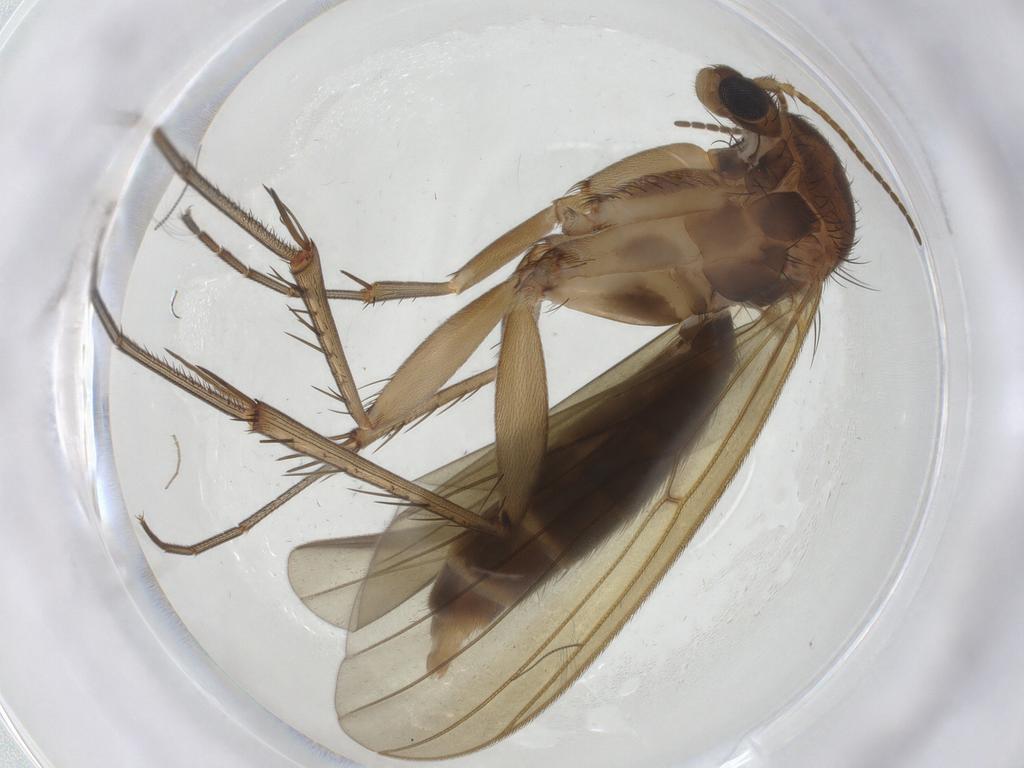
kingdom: Animalia
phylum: Arthropoda
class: Insecta
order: Diptera
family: Mycetophilidae
